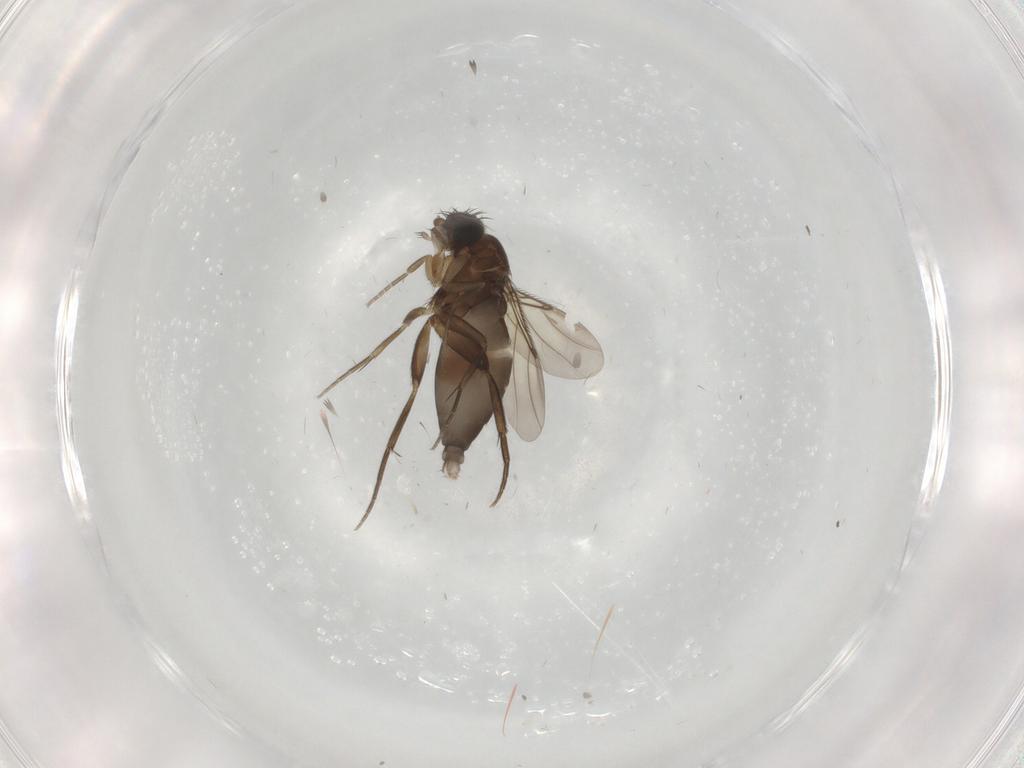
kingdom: Animalia
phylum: Arthropoda
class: Insecta
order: Diptera
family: Phoridae
